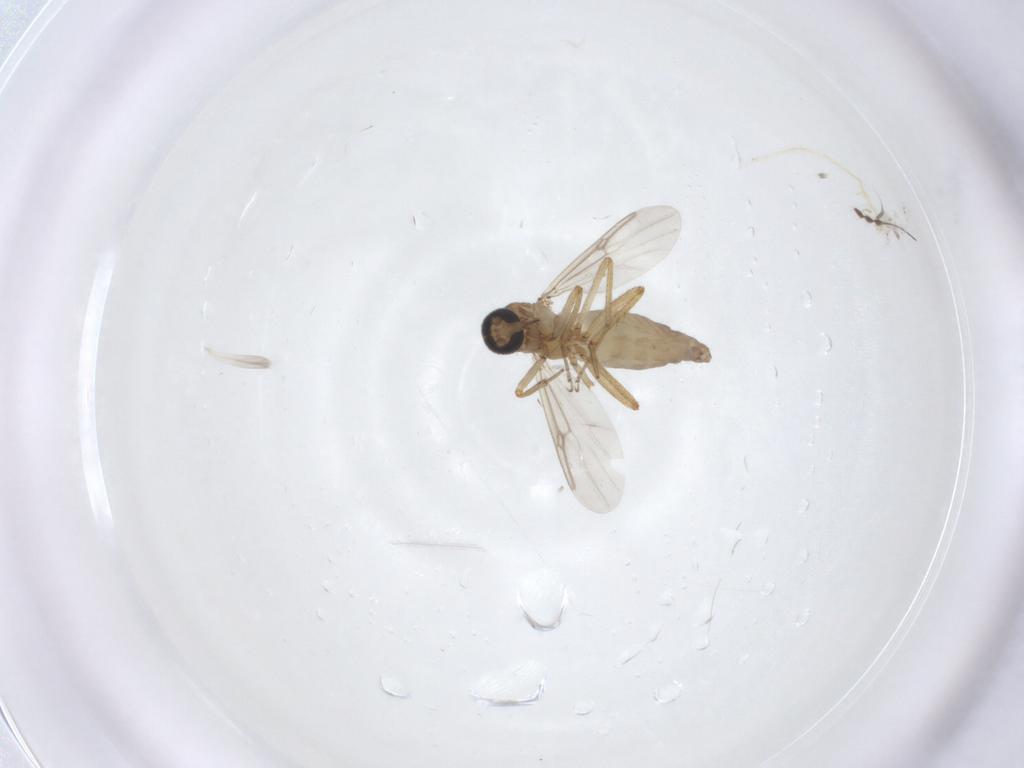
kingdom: Animalia
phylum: Arthropoda
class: Insecta
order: Diptera
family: Ceratopogonidae
